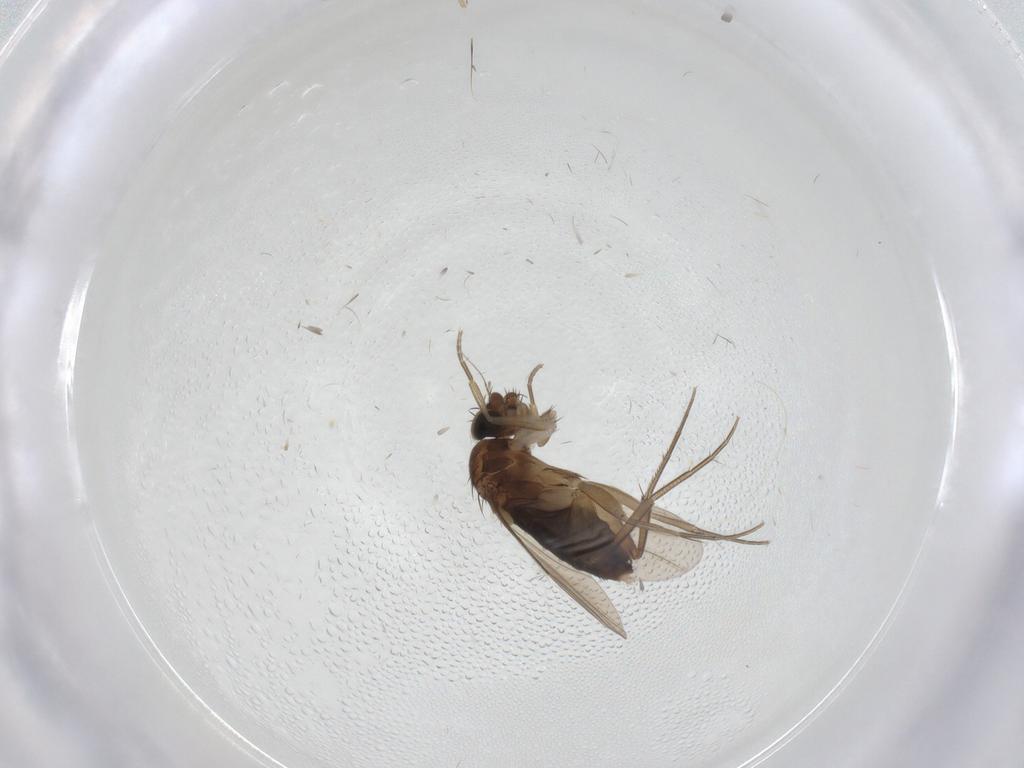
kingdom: Animalia
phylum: Arthropoda
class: Insecta
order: Diptera
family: Phoridae
